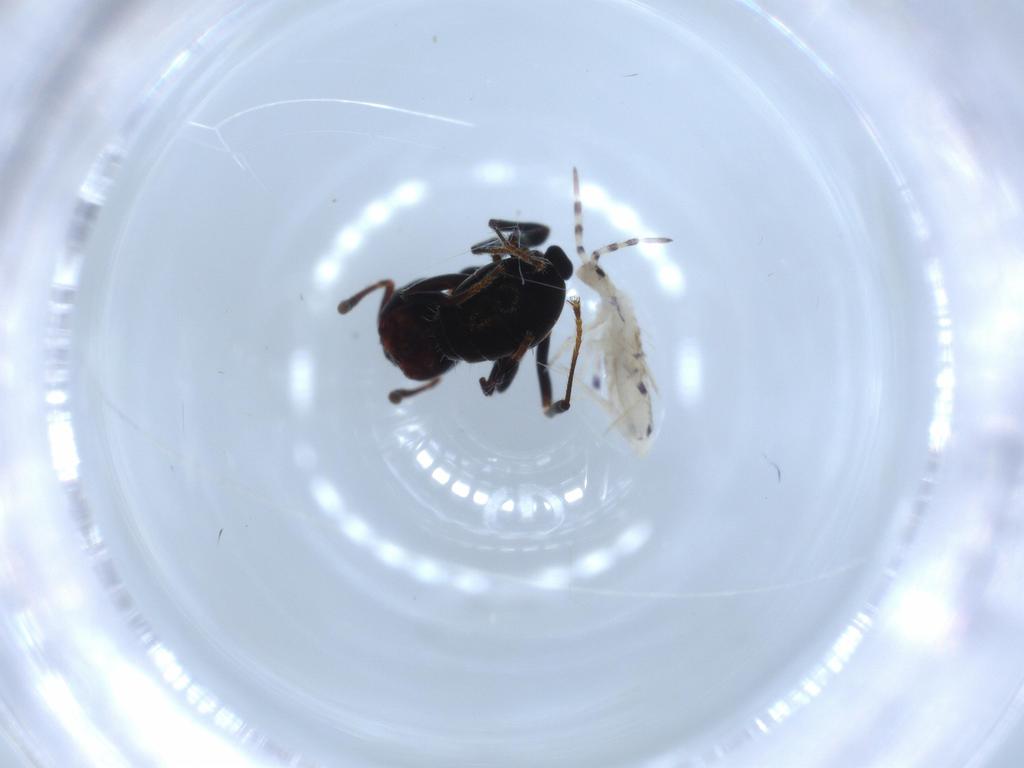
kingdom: Animalia
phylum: Arthropoda
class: Collembola
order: Entomobryomorpha
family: Entomobryidae
